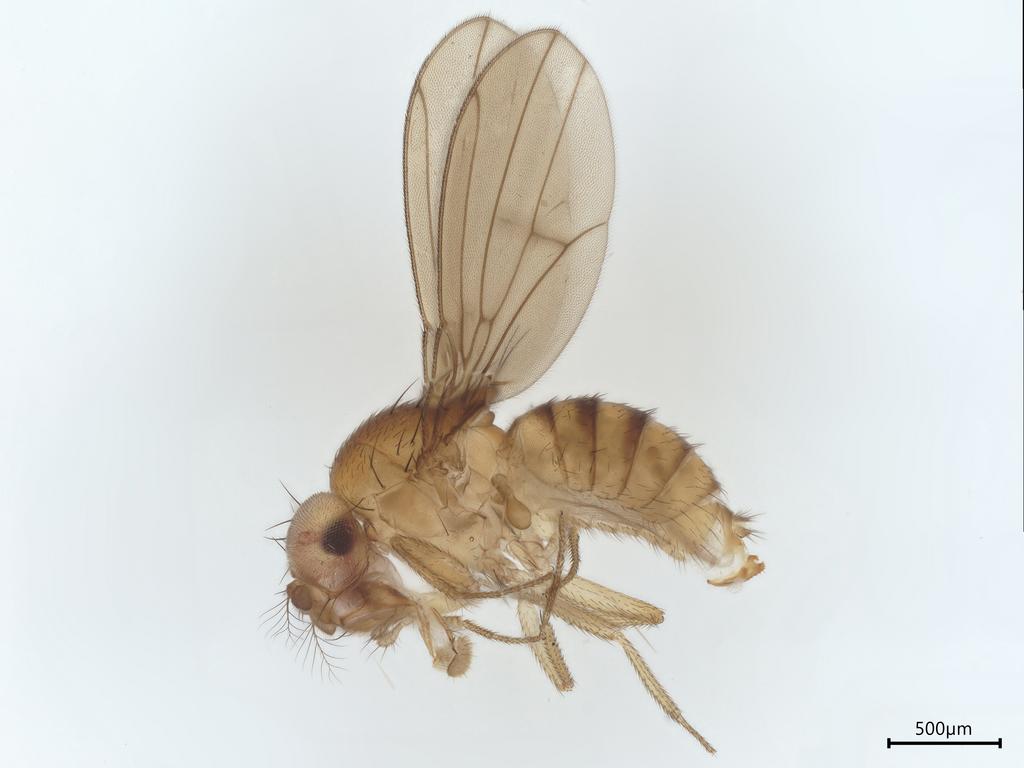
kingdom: Animalia
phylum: Arthropoda
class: Insecta
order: Diptera
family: Drosophilidae
